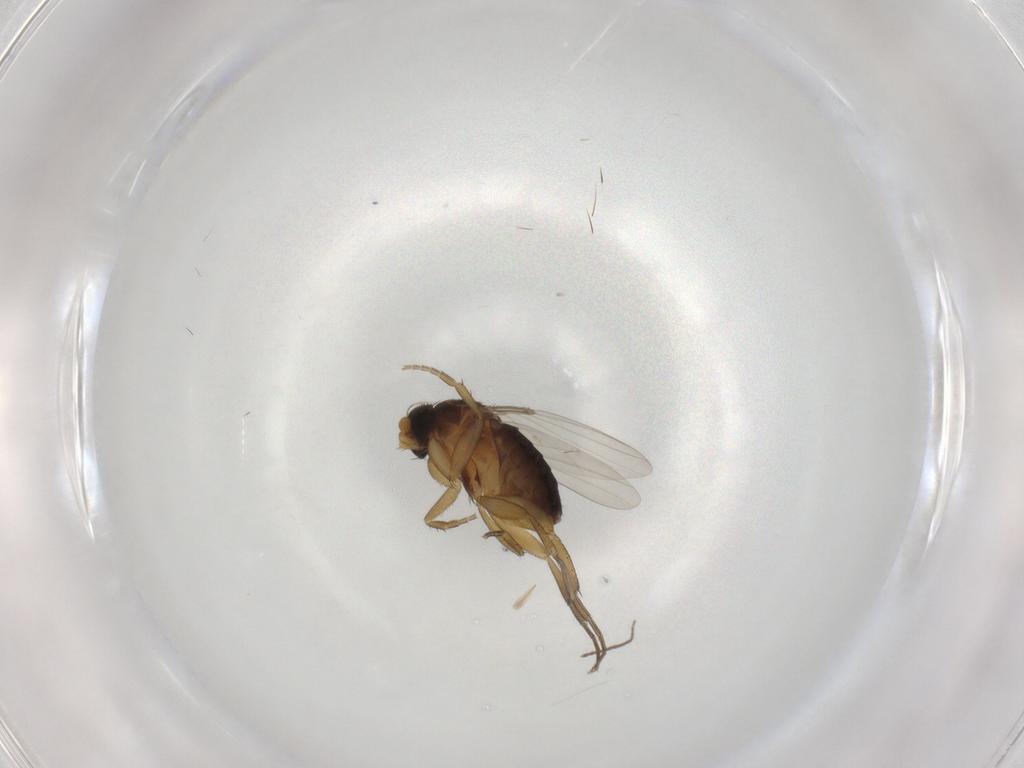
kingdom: Animalia
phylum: Arthropoda
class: Insecta
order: Diptera
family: Phoridae
